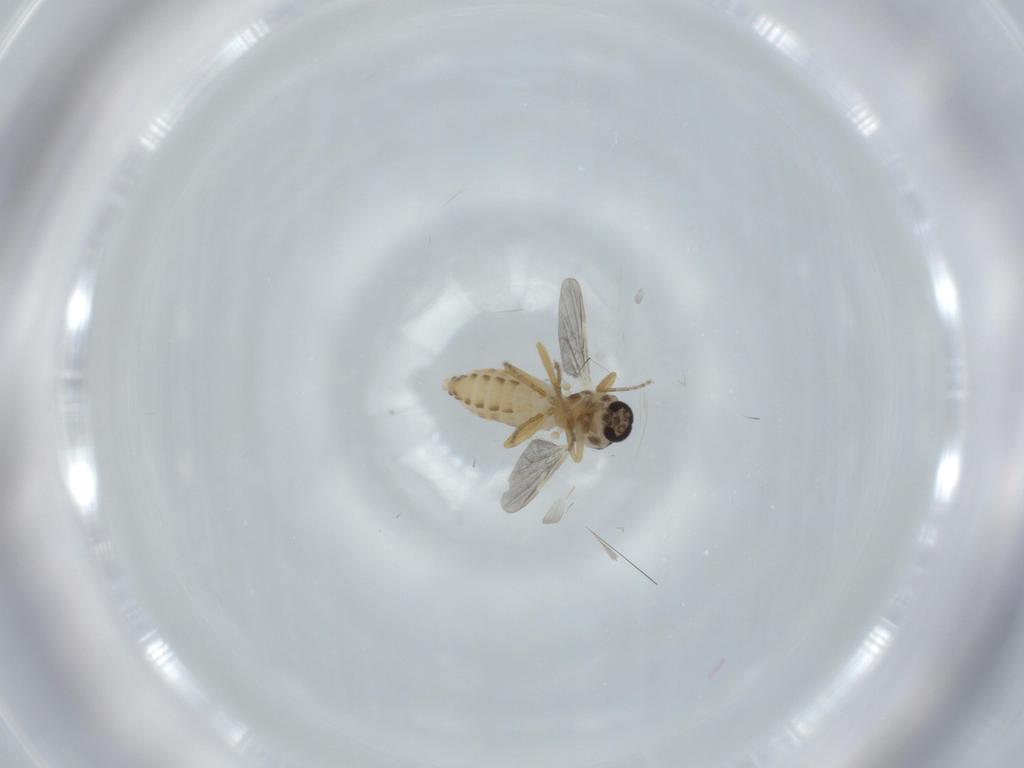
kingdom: Animalia
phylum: Arthropoda
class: Insecta
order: Diptera
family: Ceratopogonidae
